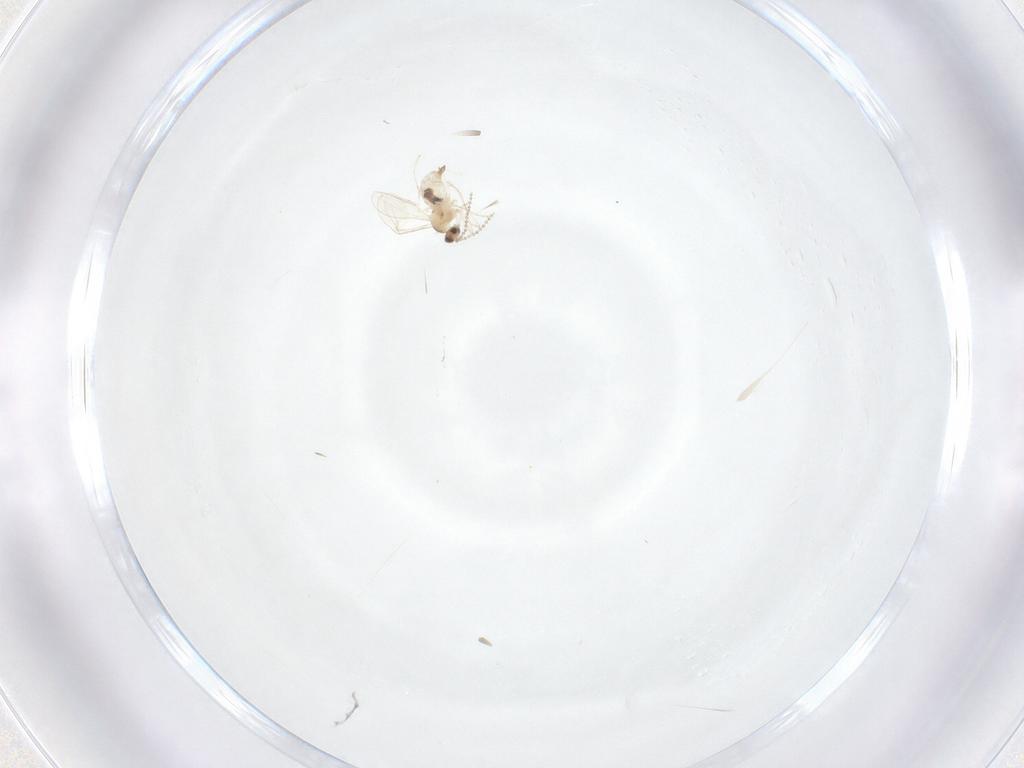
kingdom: Animalia
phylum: Arthropoda
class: Insecta
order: Diptera
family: Cecidomyiidae
